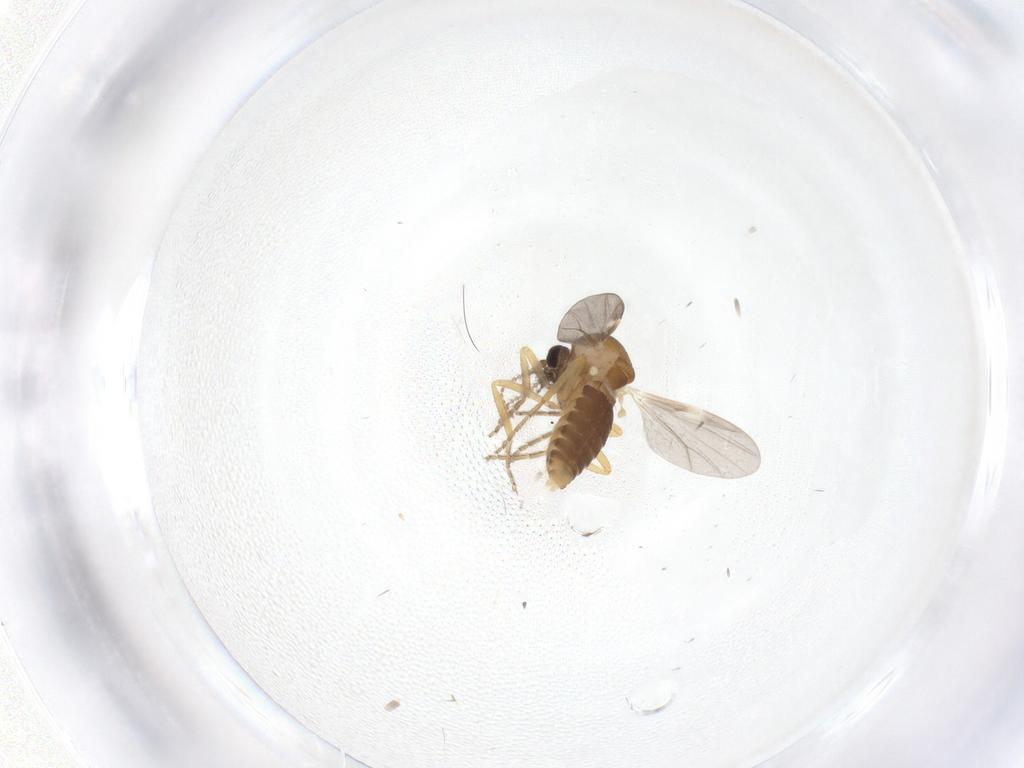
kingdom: Animalia
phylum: Arthropoda
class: Insecta
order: Diptera
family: Ceratopogonidae
